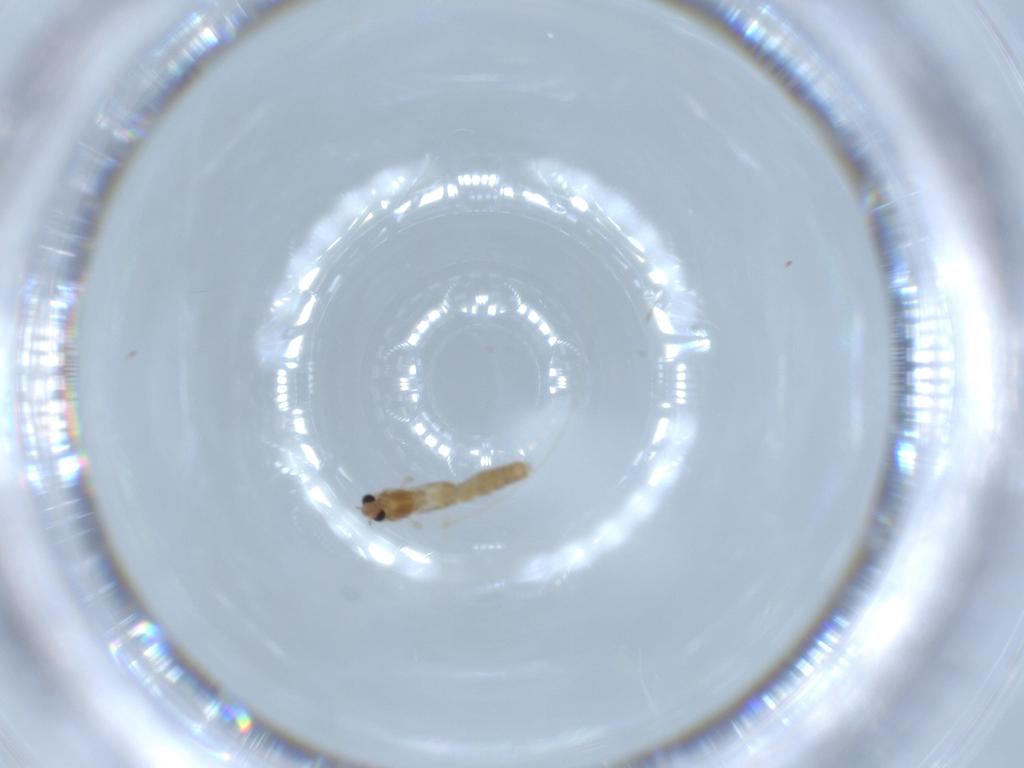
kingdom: Animalia
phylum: Arthropoda
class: Insecta
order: Diptera
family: Chironomidae
